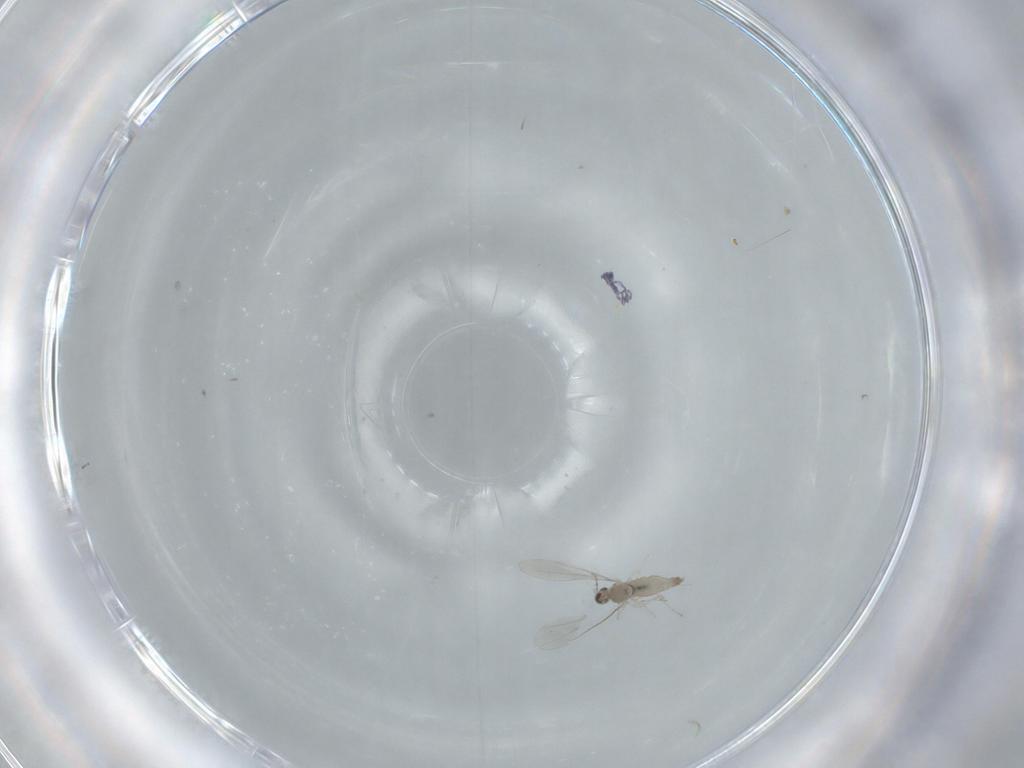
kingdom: Animalia
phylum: Arthropoda
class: Insecta
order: Diptera
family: Cecidomyiidae
